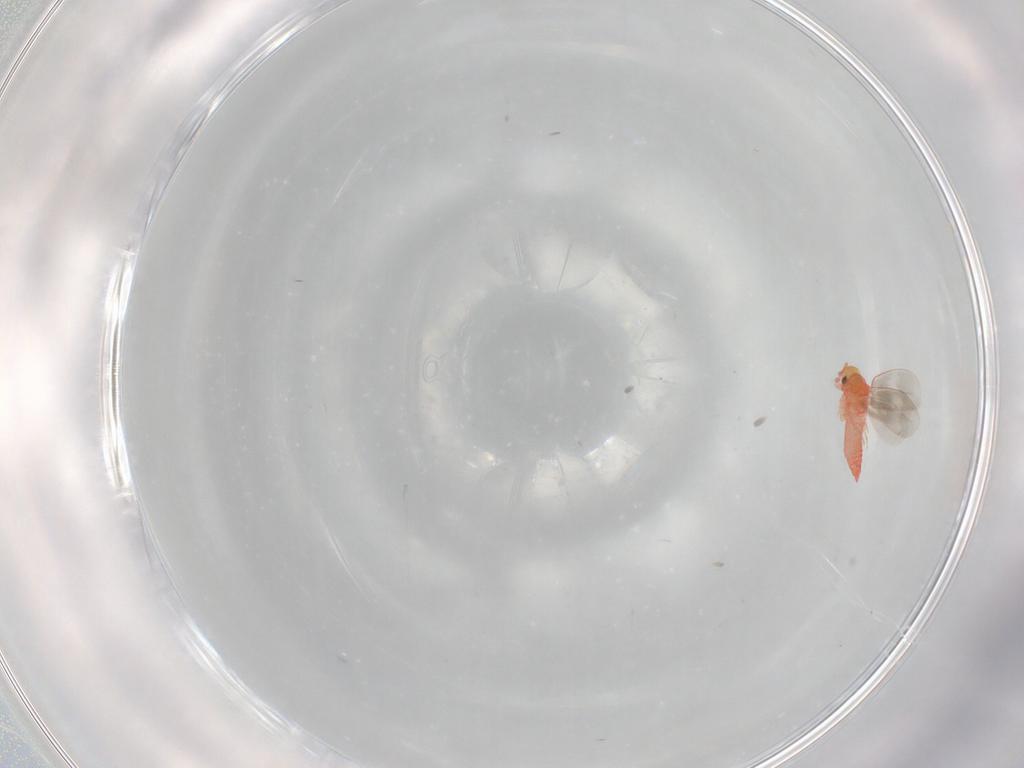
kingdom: Animalia
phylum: Arthropoda
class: Insecta
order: Hemiptera
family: Aleyrodidae
